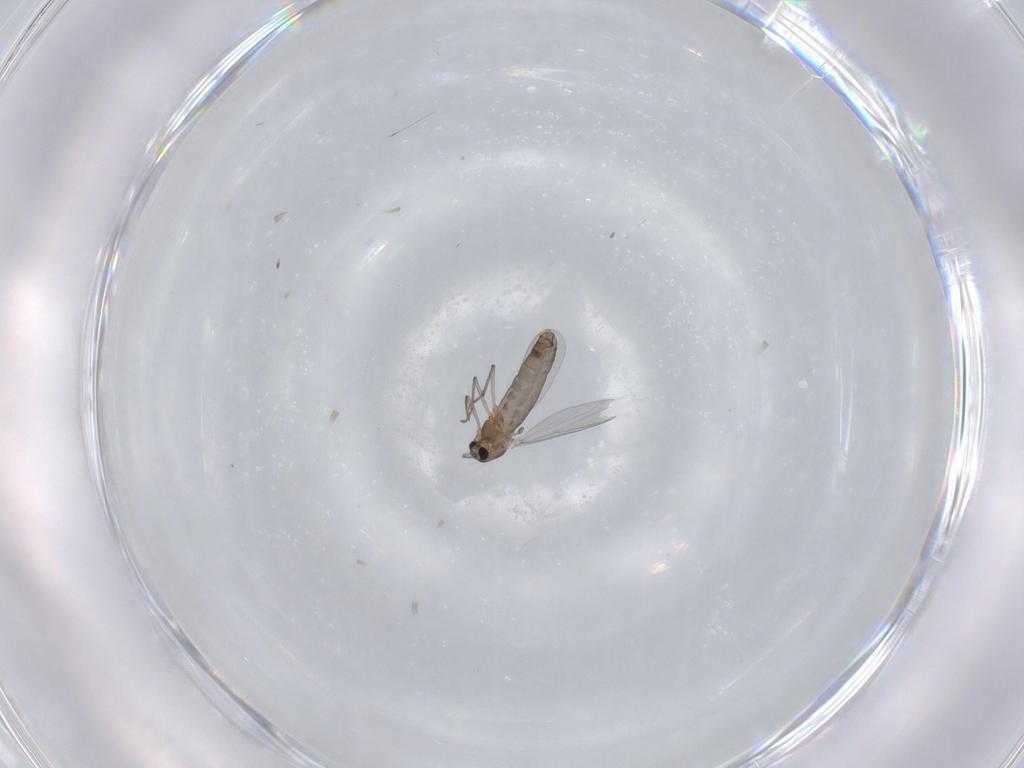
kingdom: Animalia
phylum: Arthropoda
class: Insecta
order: Diptera
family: Chironomidae
